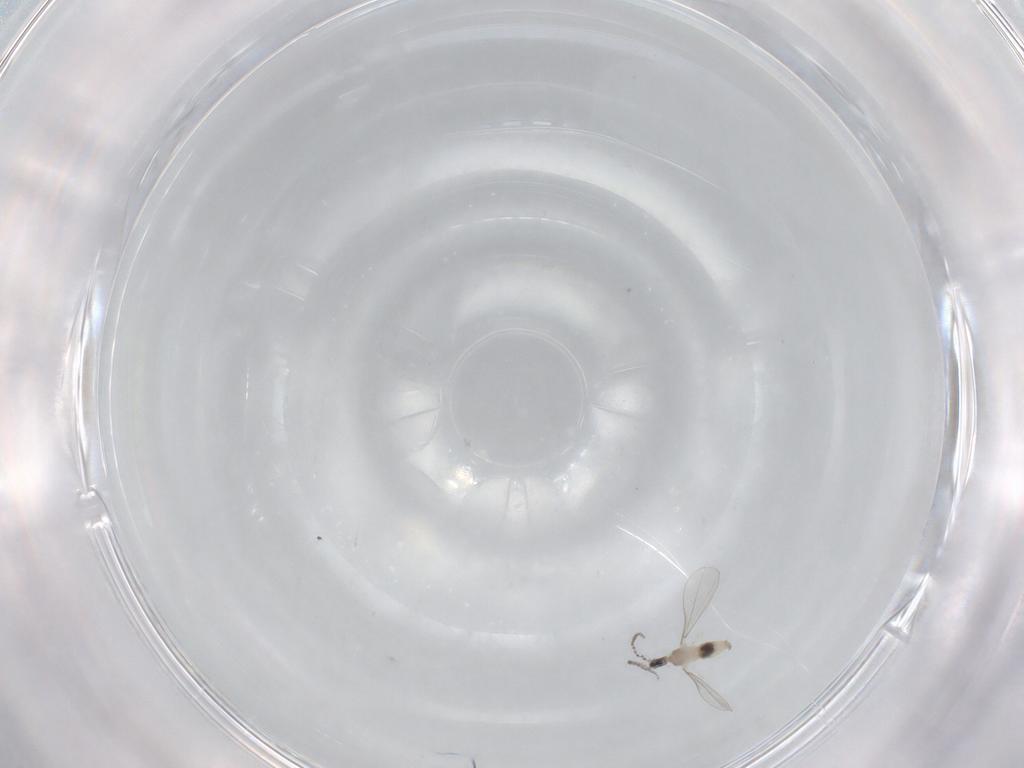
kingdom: Animalia
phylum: Arthropoda
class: Insecta
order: Diptera
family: Cecidomyiidae
